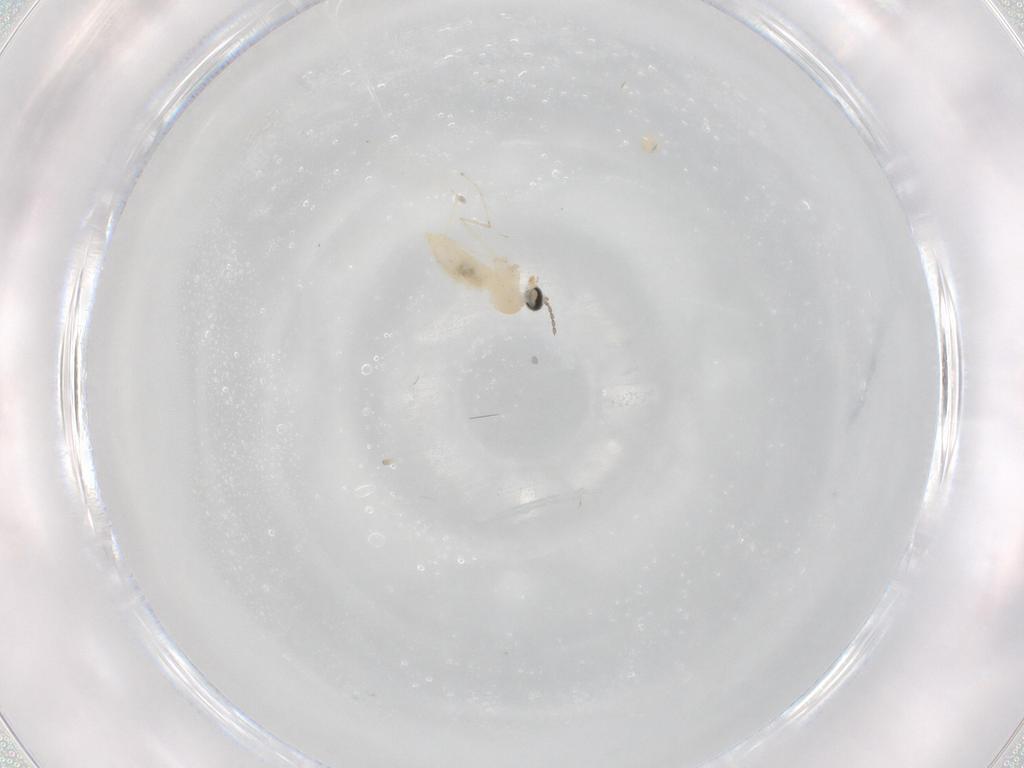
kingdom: Animalia
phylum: Arthropoda
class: Insecta
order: Diptera
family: Cecidomyiidae
